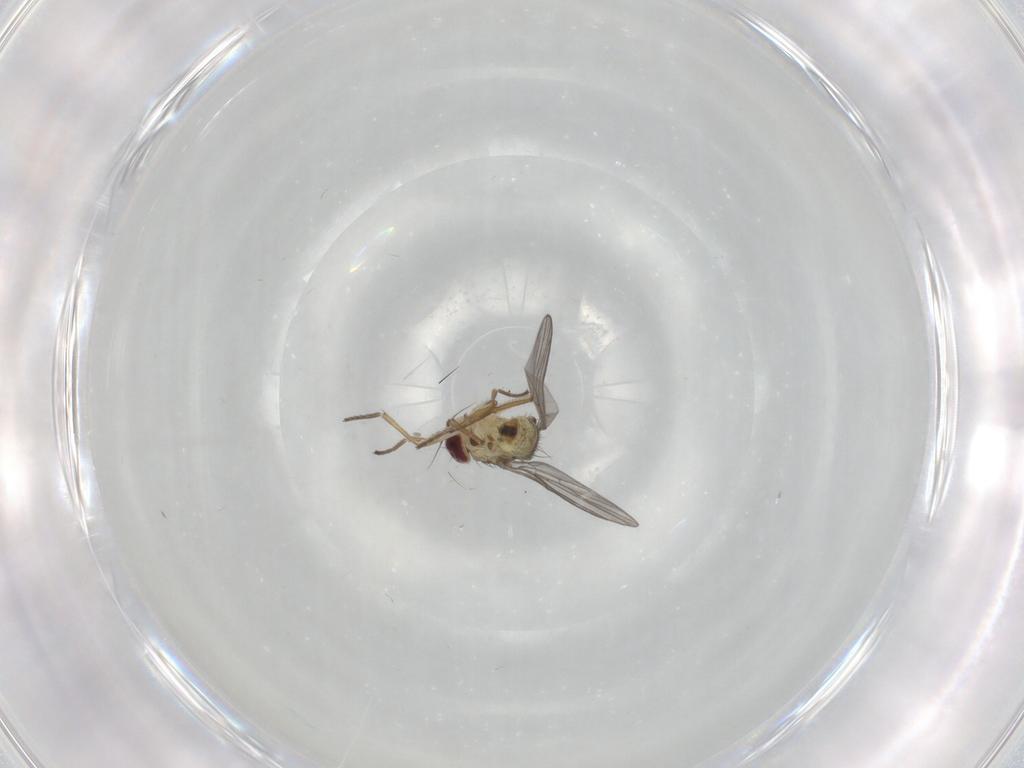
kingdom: Animalia
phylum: Arthropoda
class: Insecta
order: Diptera
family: Agromyzidae
